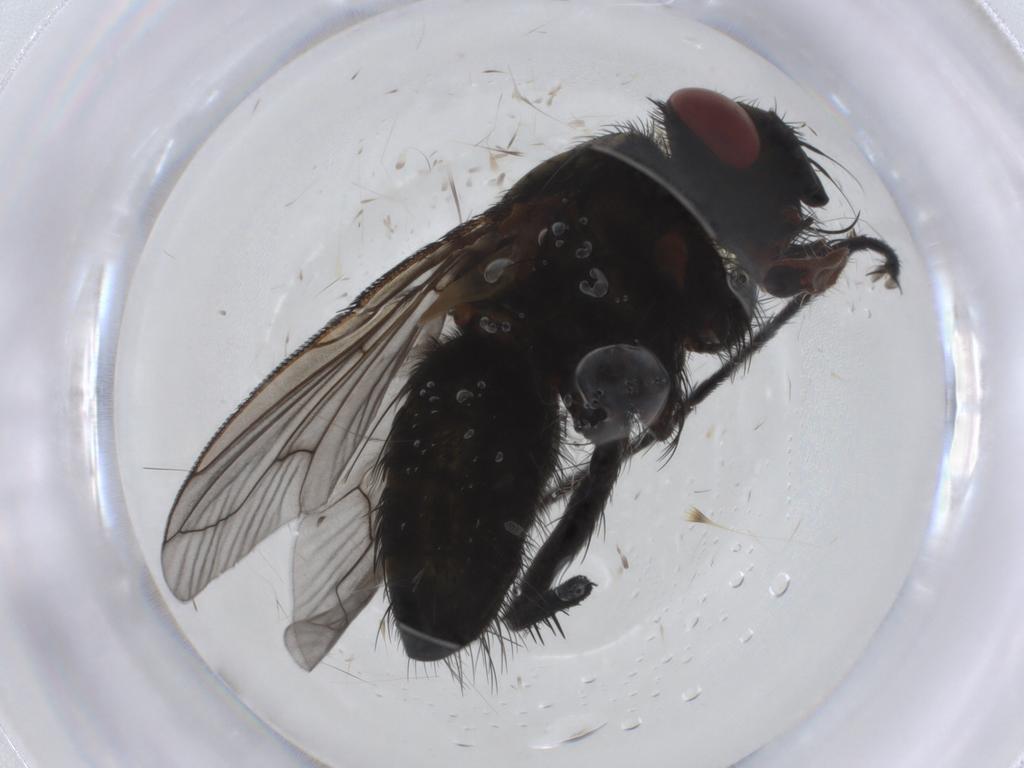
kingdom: Animalia
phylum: Arthropoda
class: Insecta
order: Diptera
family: Tachinidae
